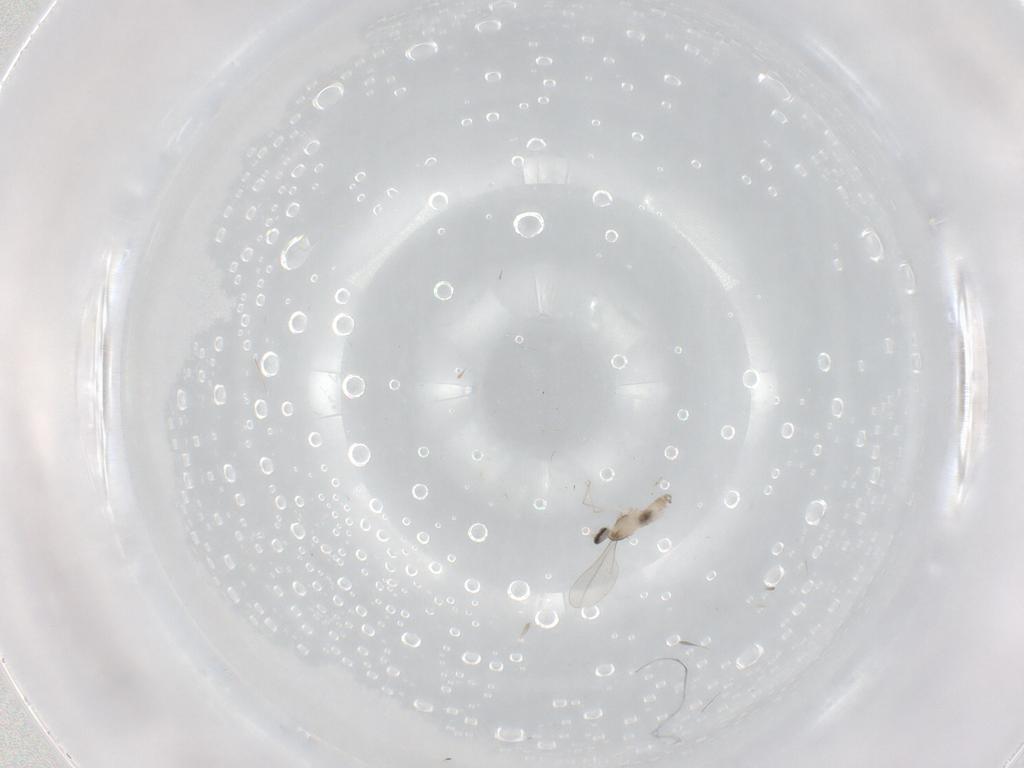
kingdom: Animalia
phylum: Arthropoda
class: Insecta
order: Diptera
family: Cecidomyiidae
